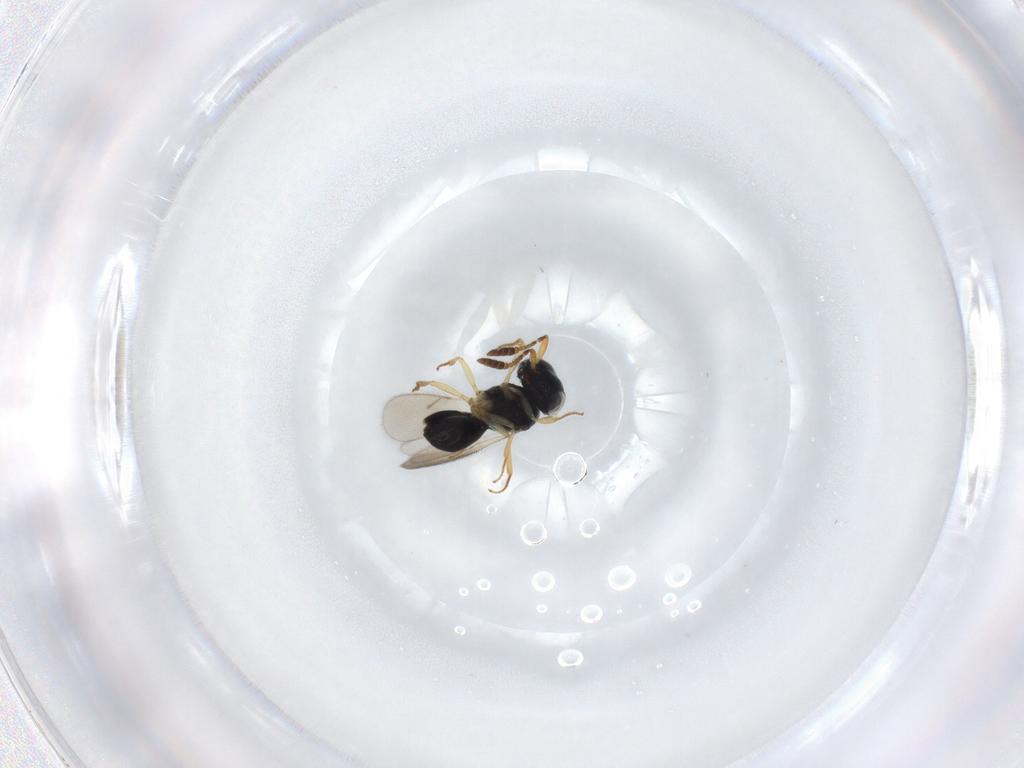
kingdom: Animalia
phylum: Arthropoda
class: Insecta
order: Hymenoptera
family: Scelionidae
